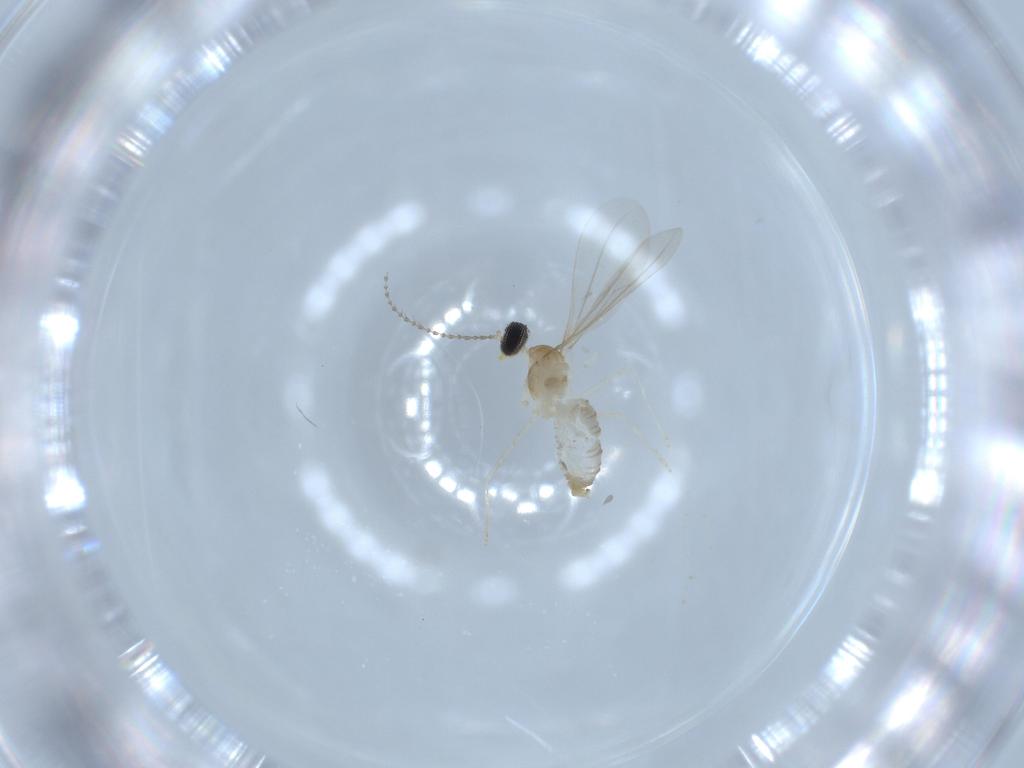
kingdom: Animalia
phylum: Arthropoda
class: Insecta
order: Diptera
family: Cecidomyiidae
